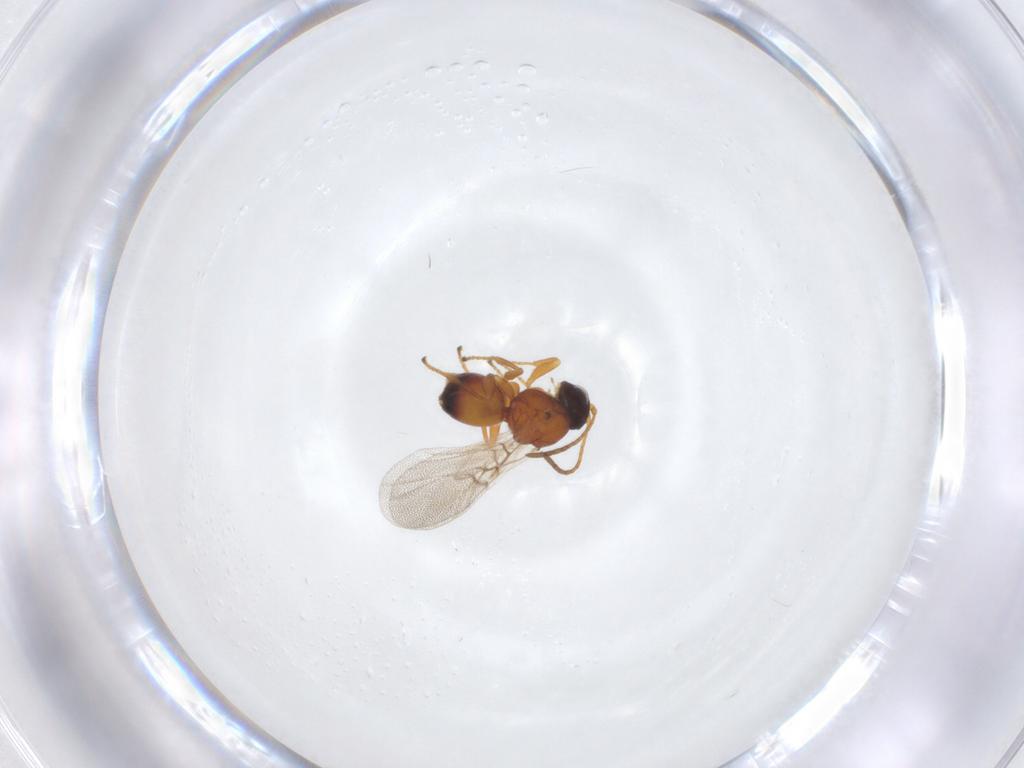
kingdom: Animalia
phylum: Arthropoda
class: Insecta
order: Hymenoptera
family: Cynipidae
